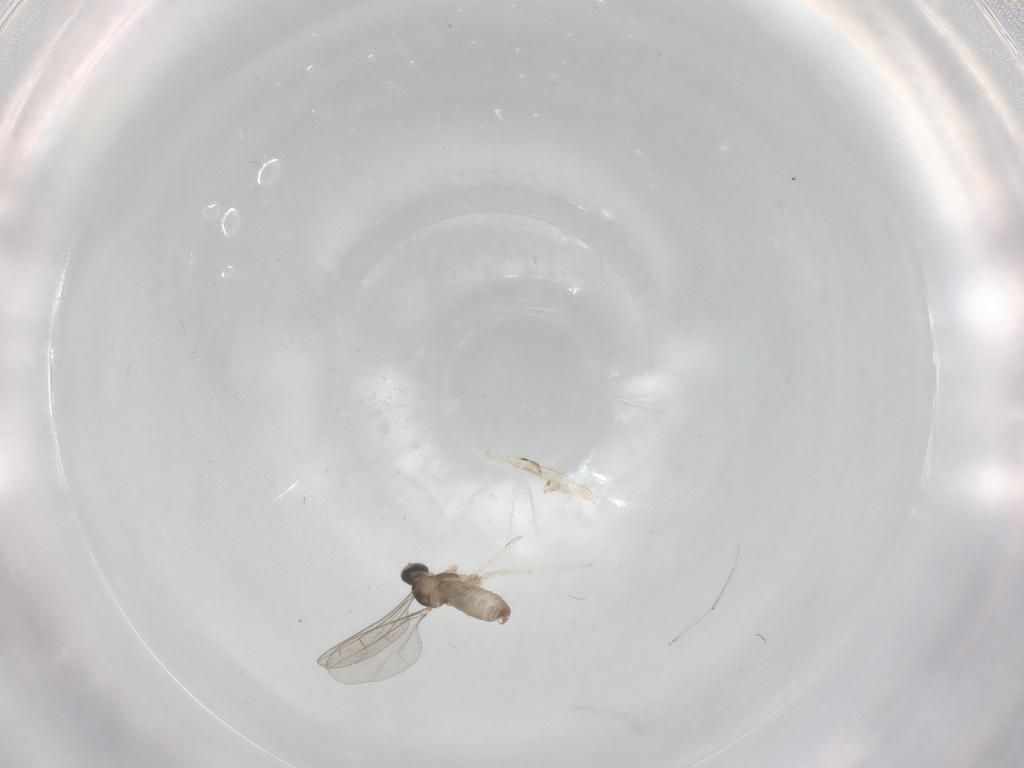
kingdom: Animalia
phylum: Arthropoda
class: Insecta
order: Diptera
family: Cecidomyiidae
